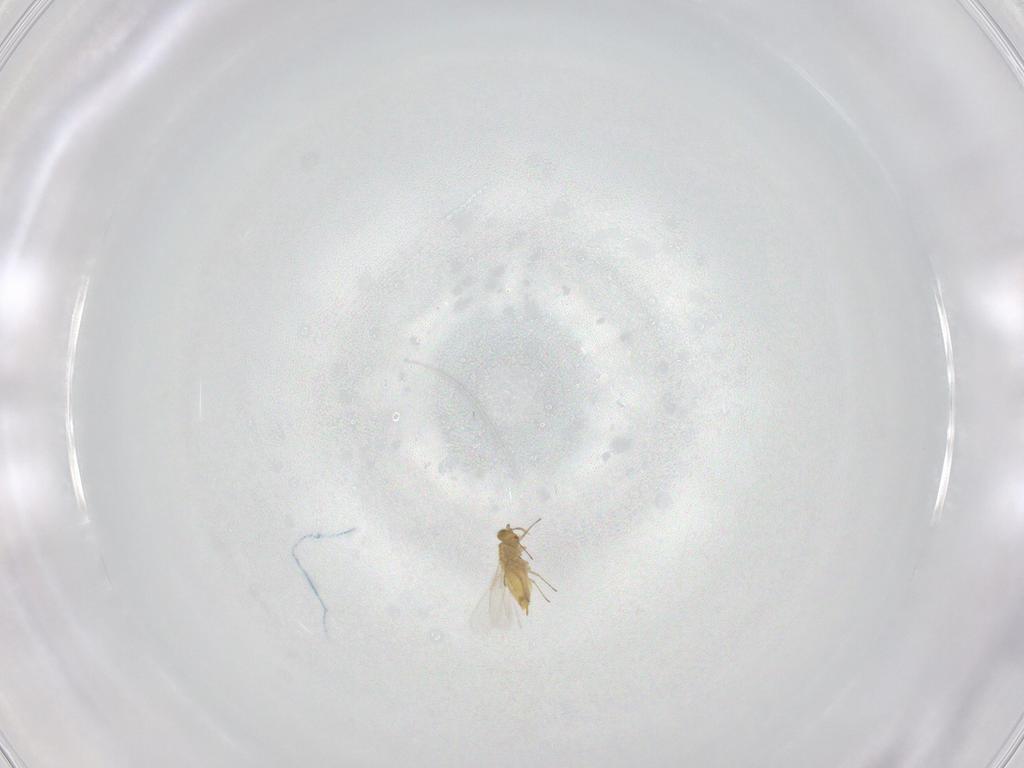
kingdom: Animalia
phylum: Arthropoda
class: Insecta
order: Hymenoptera
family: Aphelinidae
